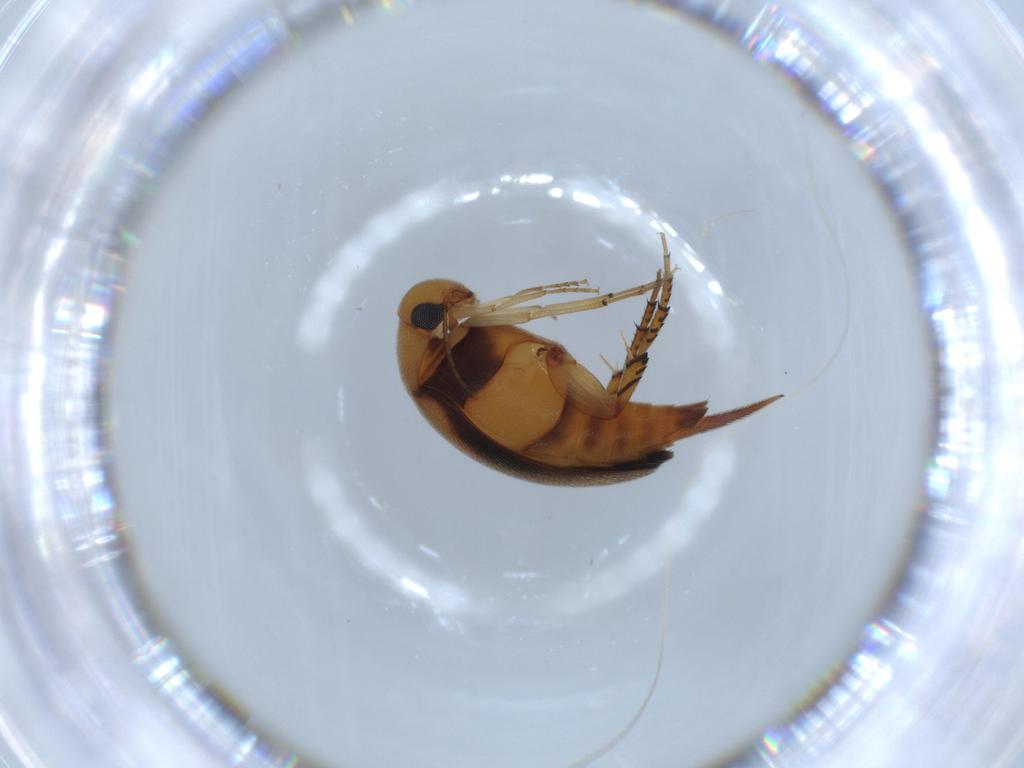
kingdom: Animalia
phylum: Arthropoda
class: Insecta
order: Coleoptera
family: Mordellidae
